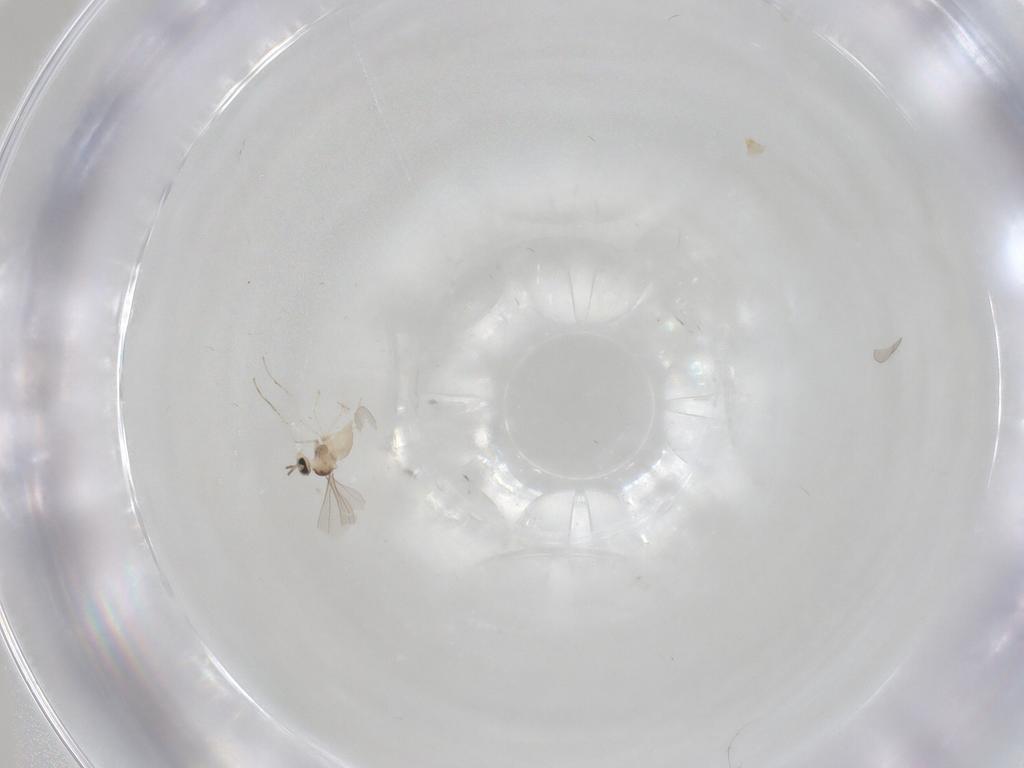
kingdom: Animalia
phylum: Arthropoda
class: Insecta
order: Diptera
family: Cecidomyiidae
